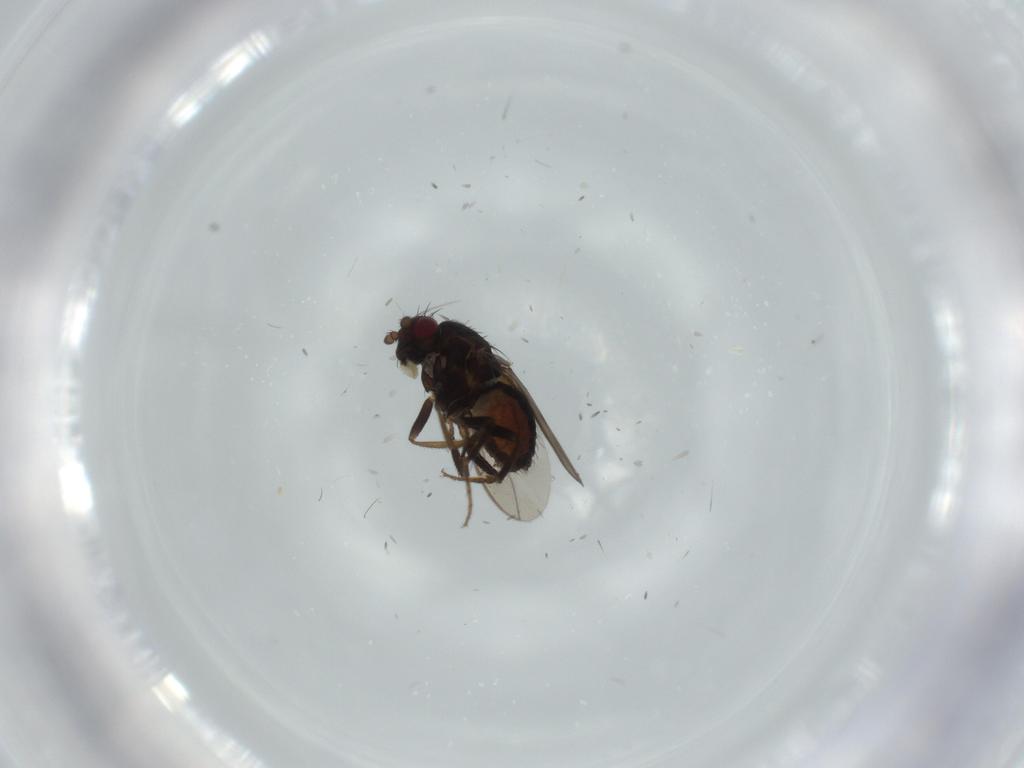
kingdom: Animalia
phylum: Arthropoda
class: Insecta
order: Diptera
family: Sphaeroceridae
